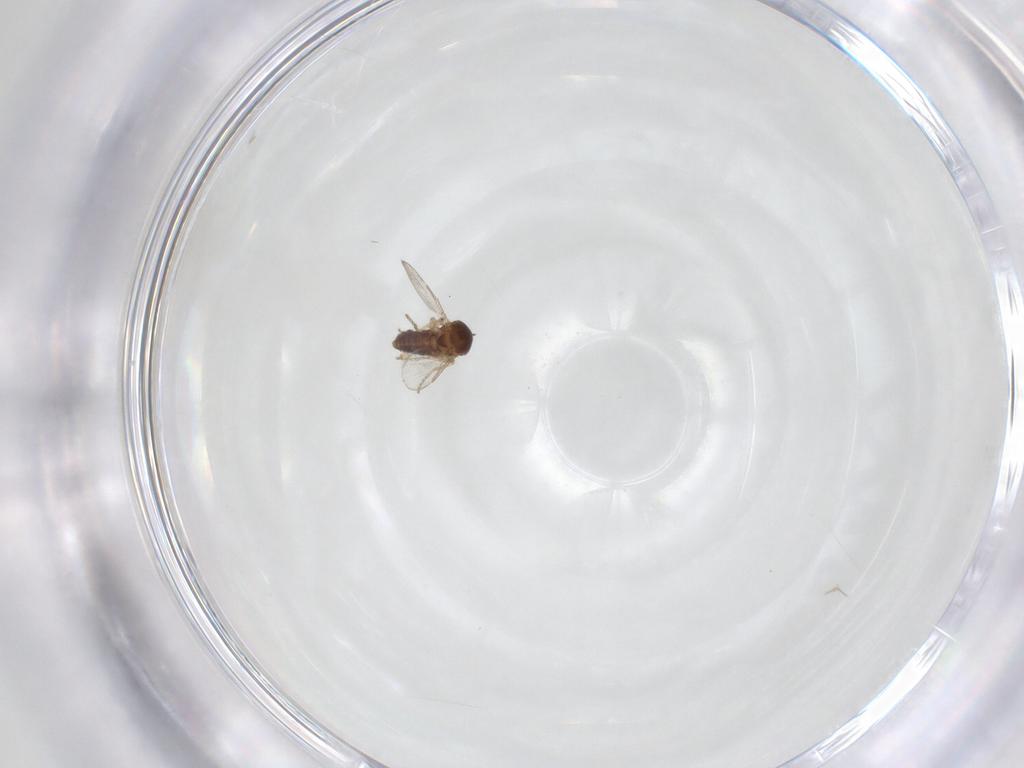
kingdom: Animalia
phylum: Arthropoda
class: Insecta
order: Diptera
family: Ceratopogonidae
